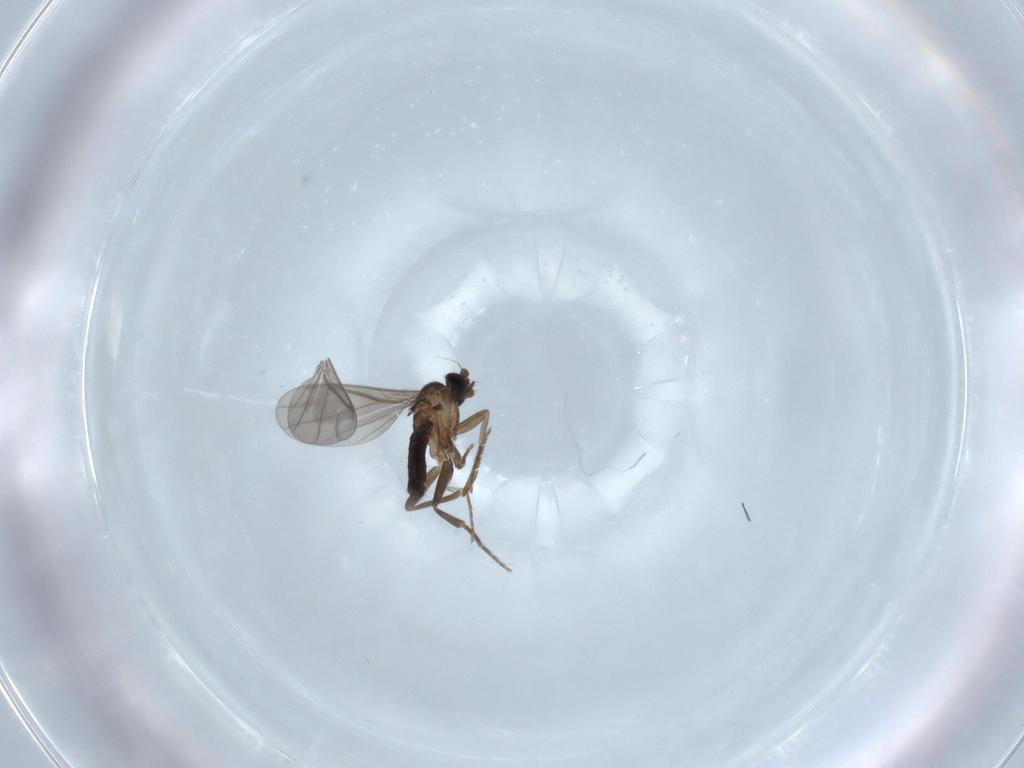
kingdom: Animalia
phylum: Arthropoda
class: Insecta
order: Diptera
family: Phoridae
